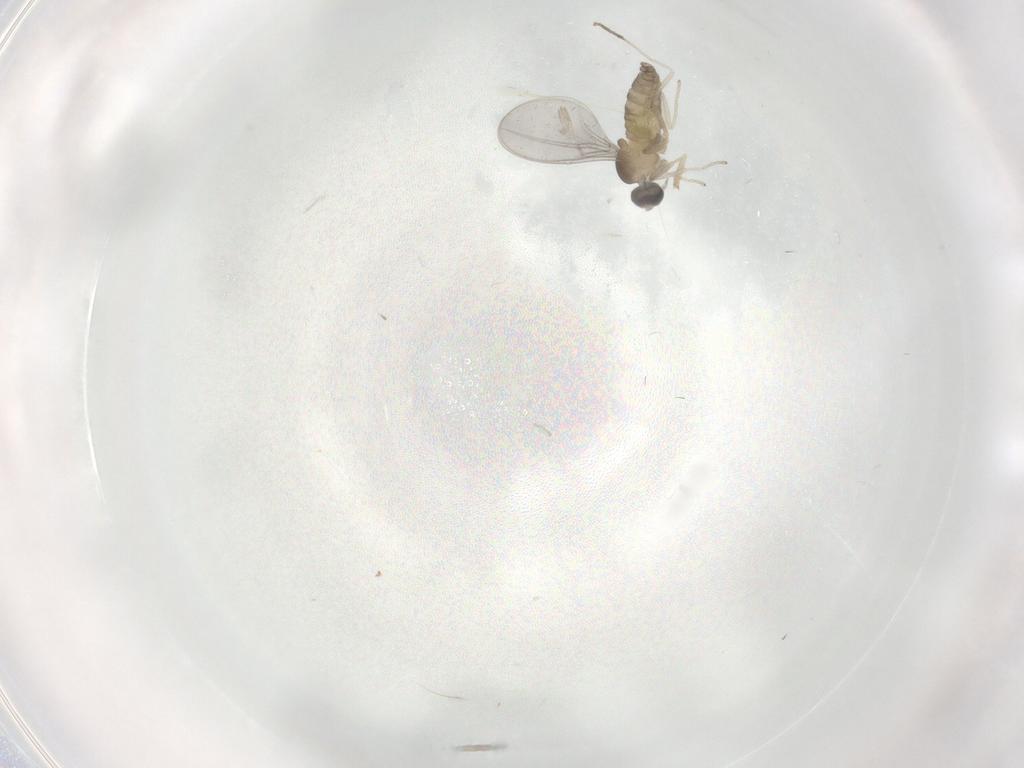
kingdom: Animalia
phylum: Arthropoda
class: Insecta
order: Diptera
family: Cecidomyiidae
